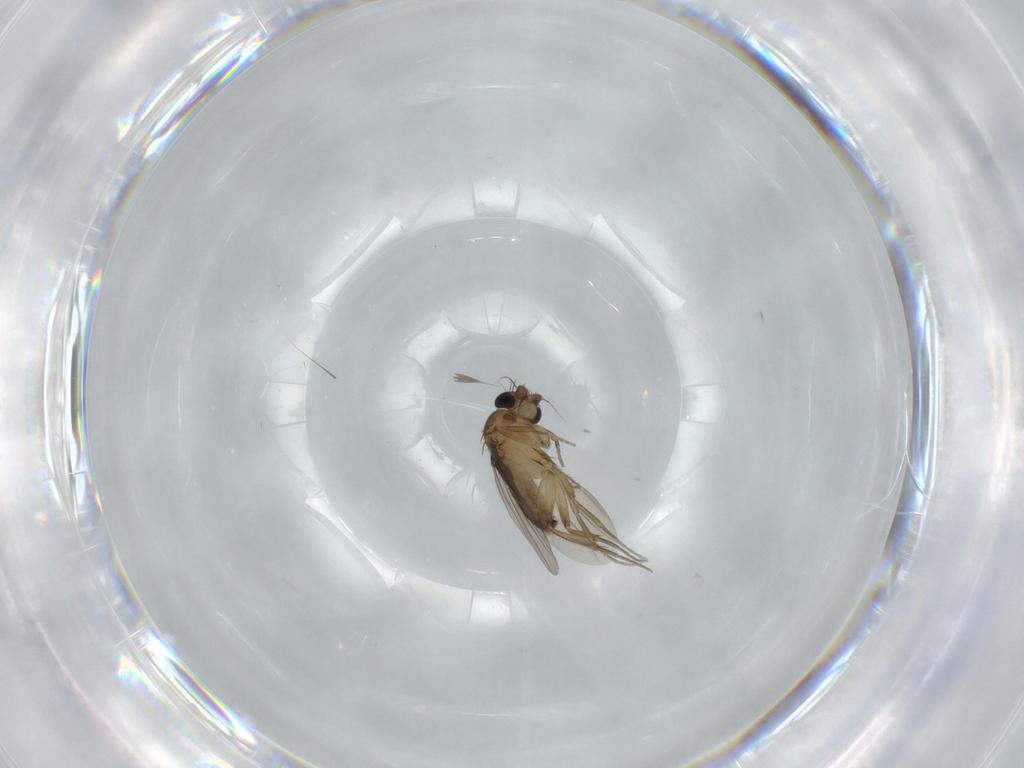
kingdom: Animalia
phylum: Arthropoda
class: Insecta
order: Diptera
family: Phoridae
